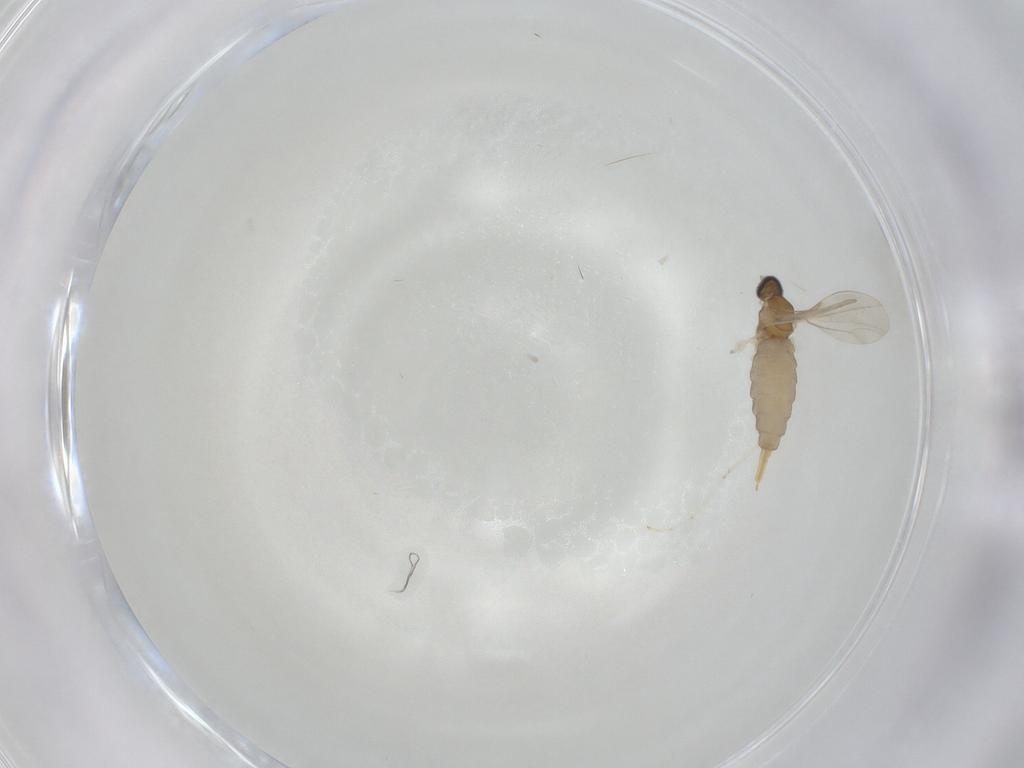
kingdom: Animalia
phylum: Arthropoda
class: Insecta
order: Diptera
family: Cecidomyiidae
